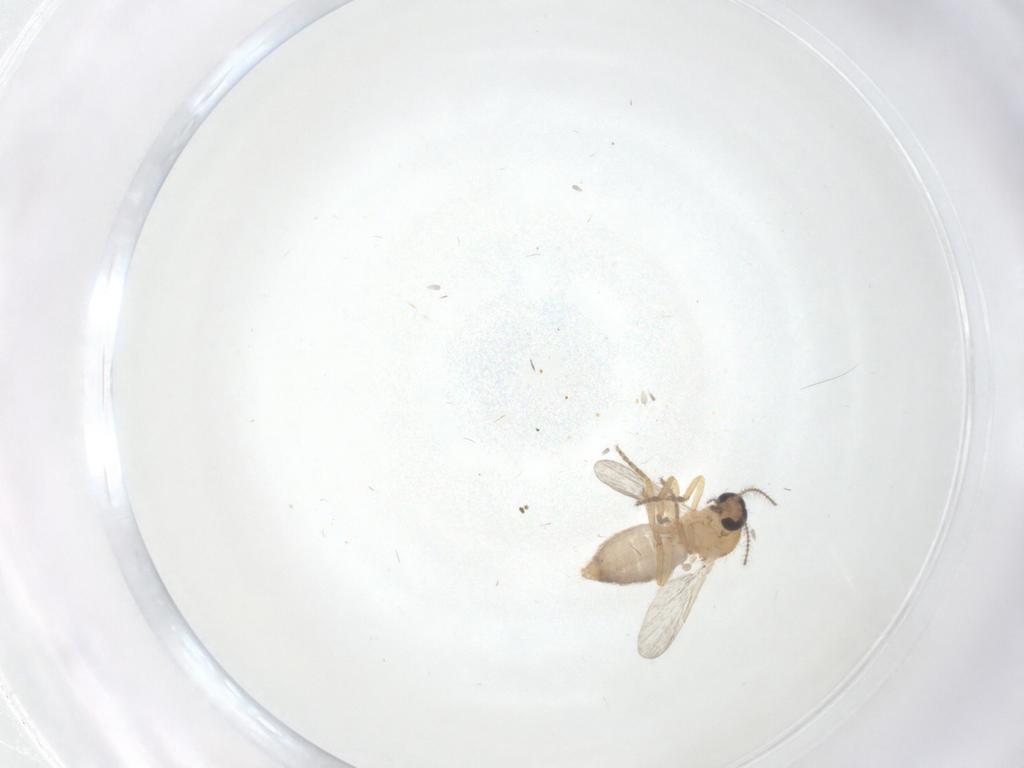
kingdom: Animalia
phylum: Arthropoda
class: Insecta
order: Diptera
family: Ceratopogonidae
